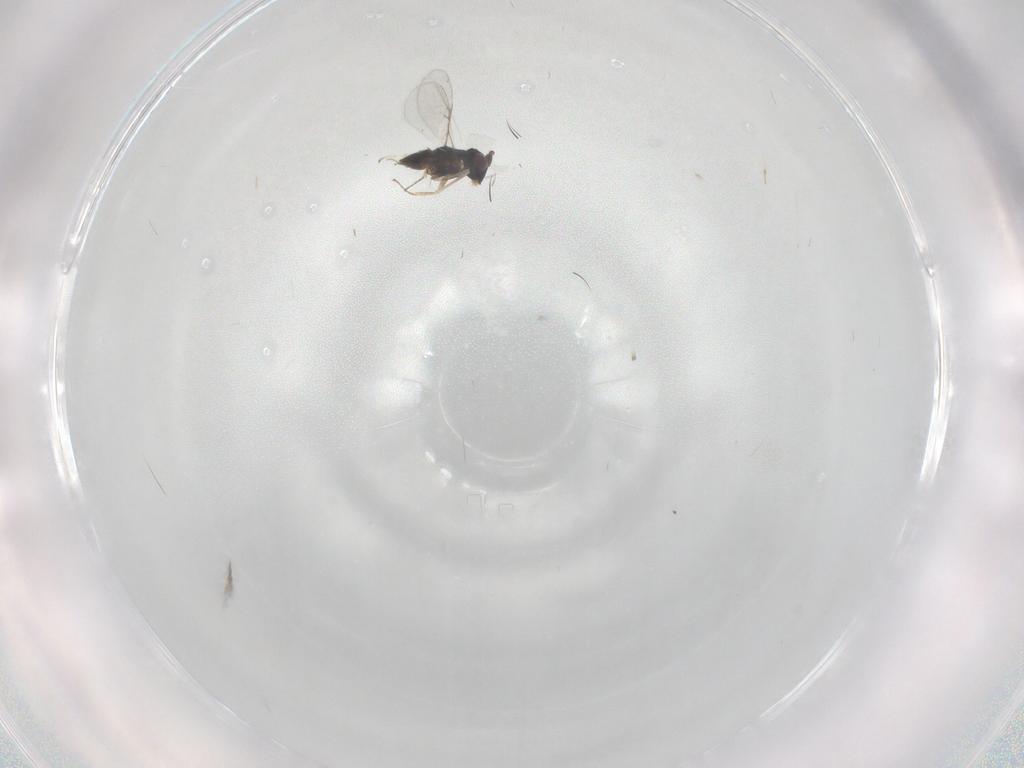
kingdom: Animalia
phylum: Arthropoda
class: Insecta
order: Hymenoptera
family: Encyrtidae
